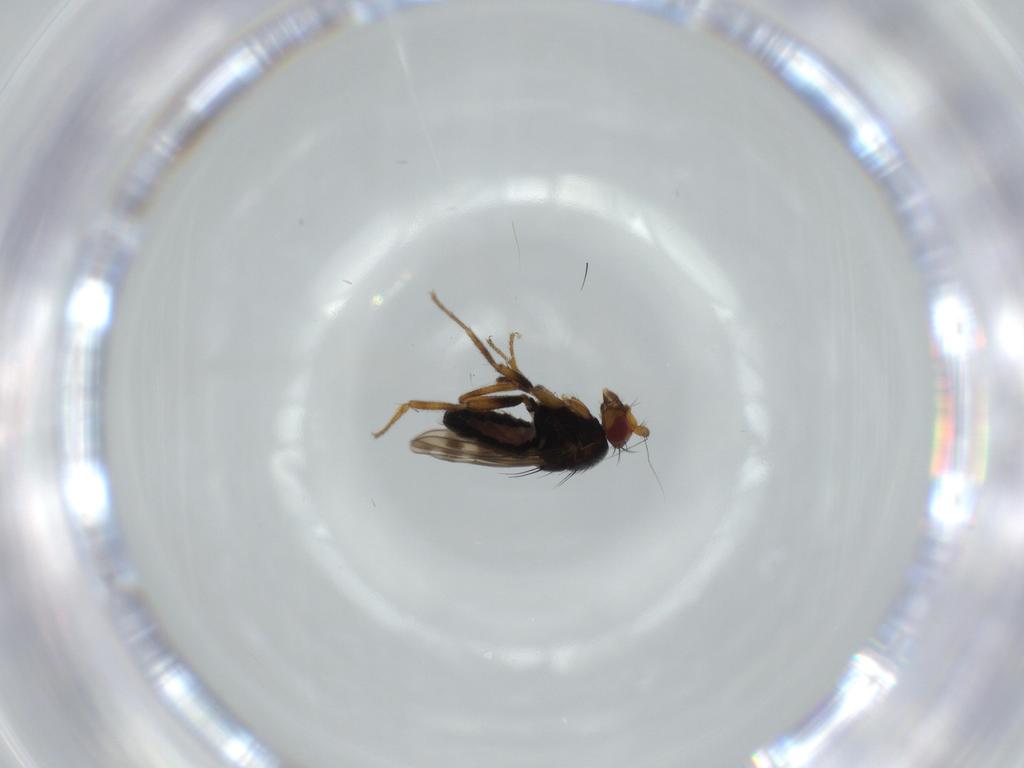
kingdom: Animalia
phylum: Arthropoda
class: Insecta
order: Diptera
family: Sphaeroceridae
